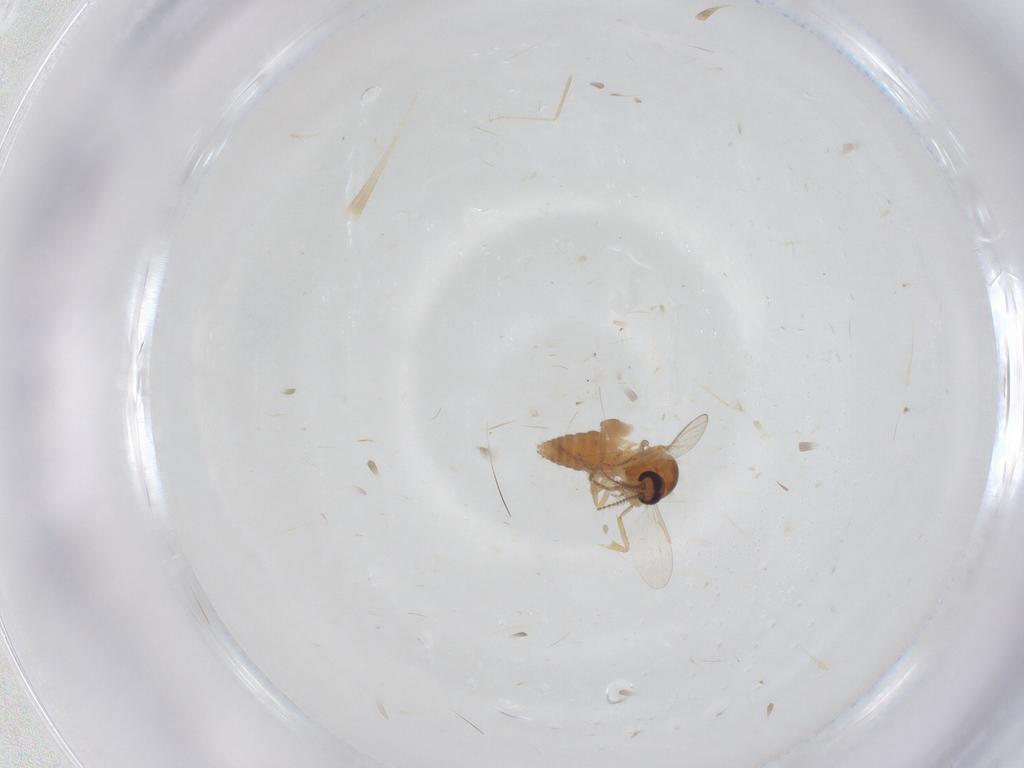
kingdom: Animalia
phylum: Arthropoda
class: Insecta
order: Diptera
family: Ceratopogonidae
